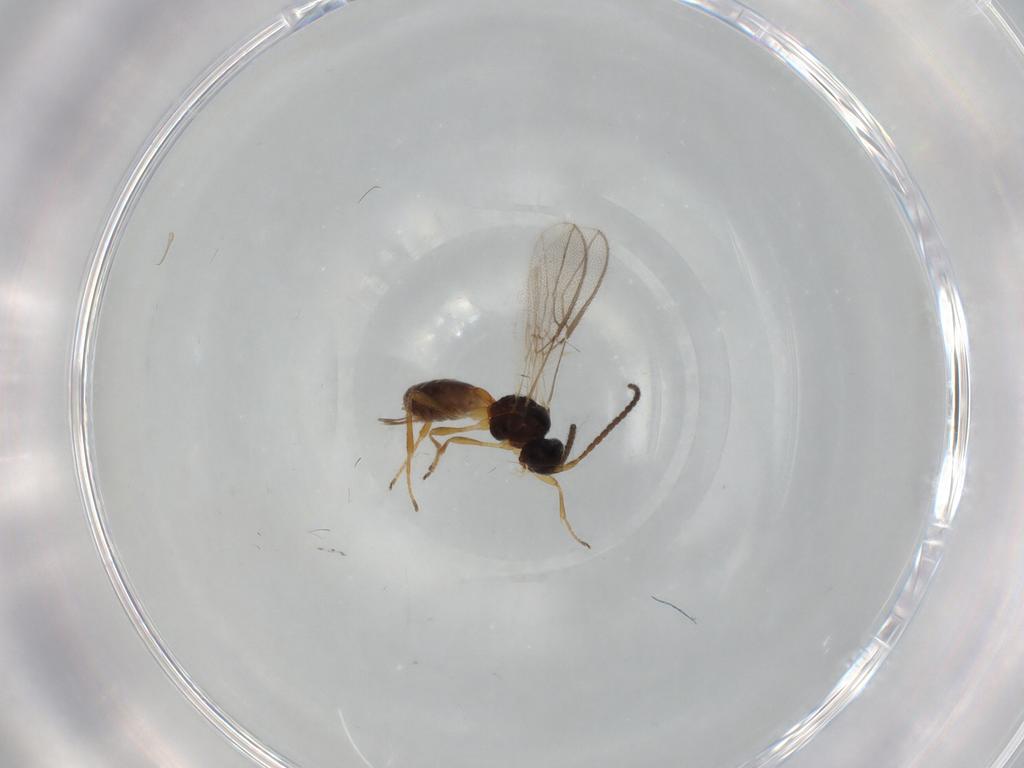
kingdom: Animalia
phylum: Arthropoda
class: Insecta
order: Hymenoptera
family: Braconidae
